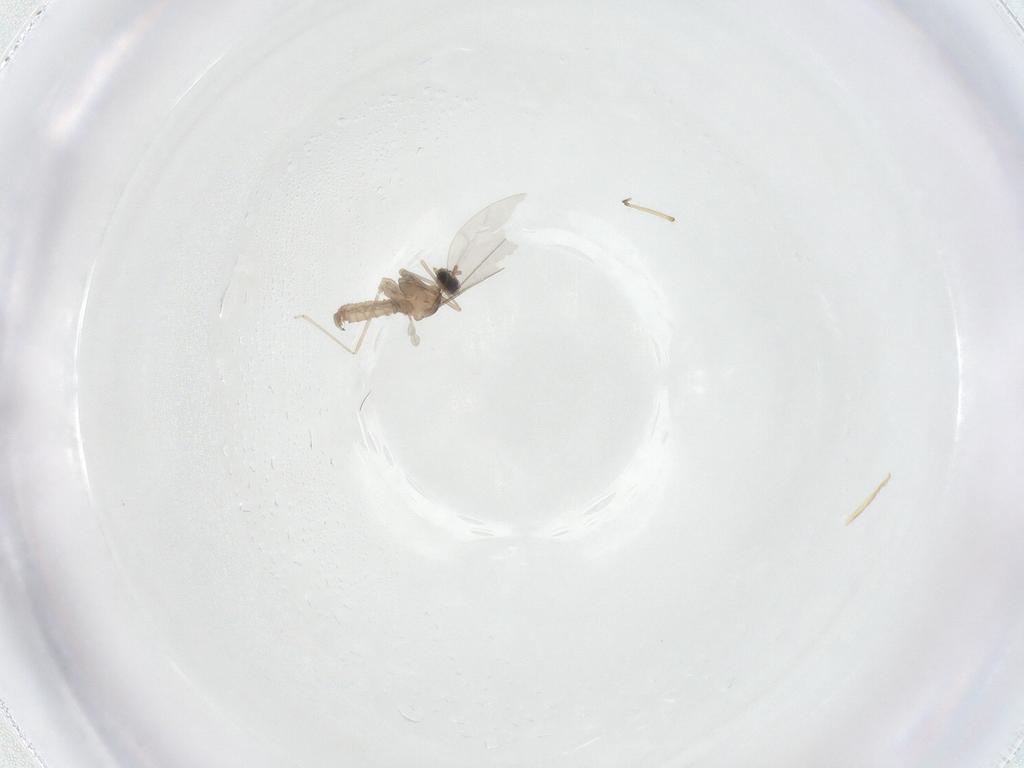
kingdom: Animalia
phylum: Arthropoda
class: Insecta
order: Diptera
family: Cecidomyiidae
